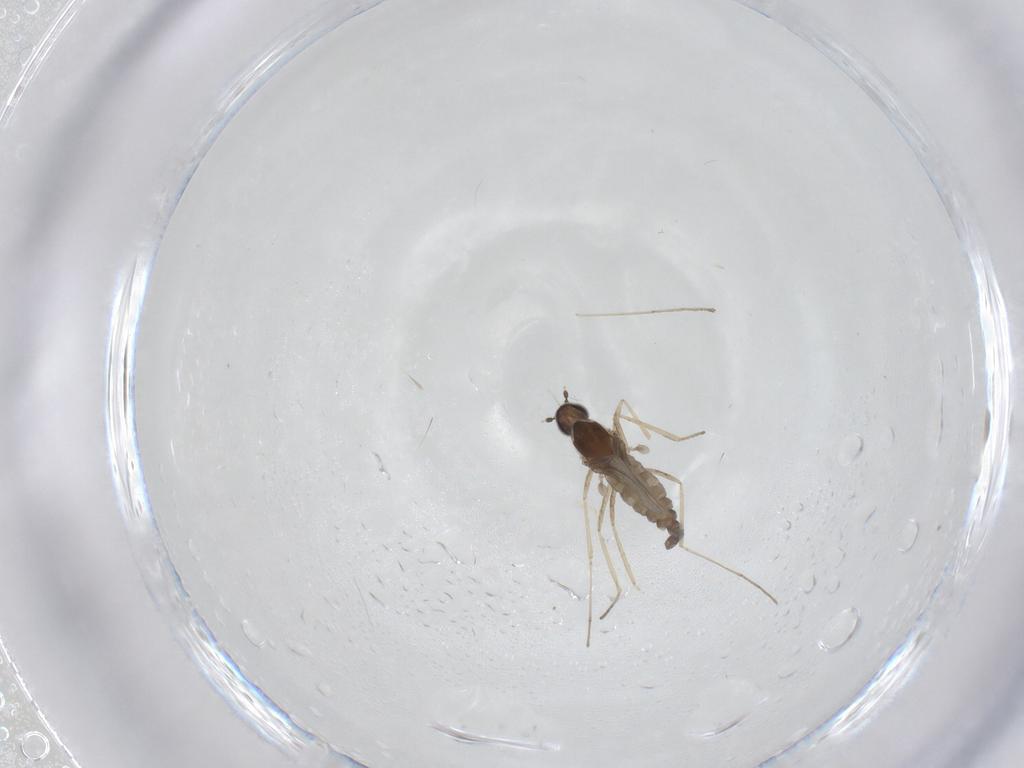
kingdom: Animalia
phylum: Arthropoda
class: Insecta
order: Diptera
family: Cecidomyiidae
